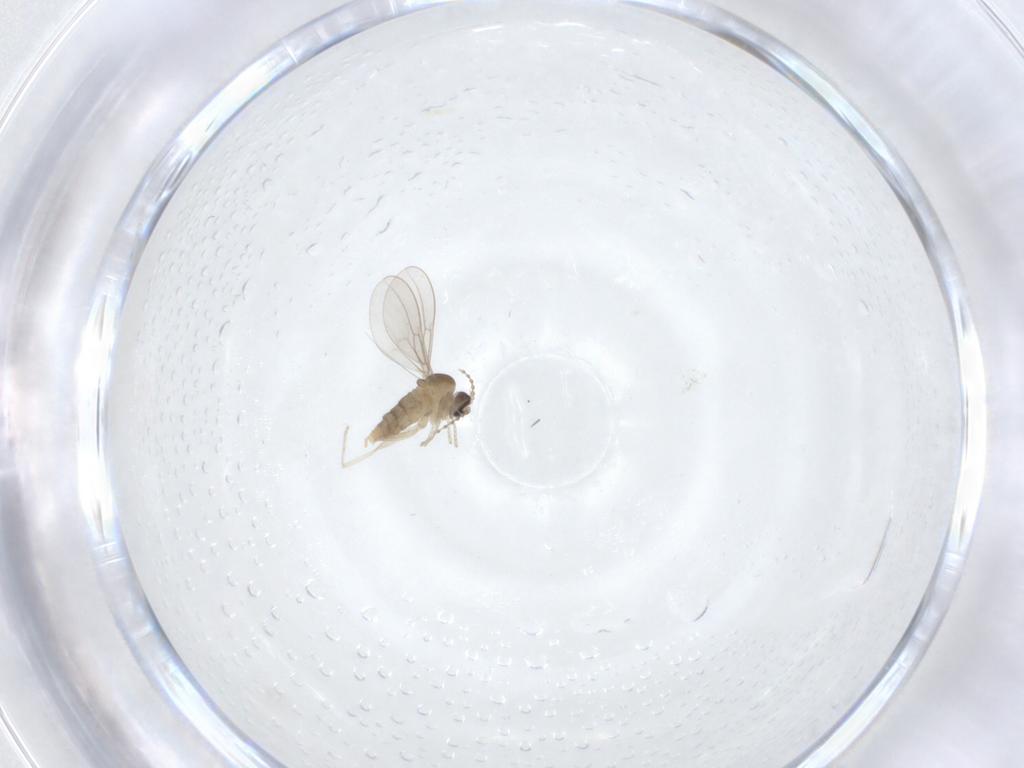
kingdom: Animalia
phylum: Arthropoda
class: Insecta
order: Diptera
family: Cecidomyiidae
